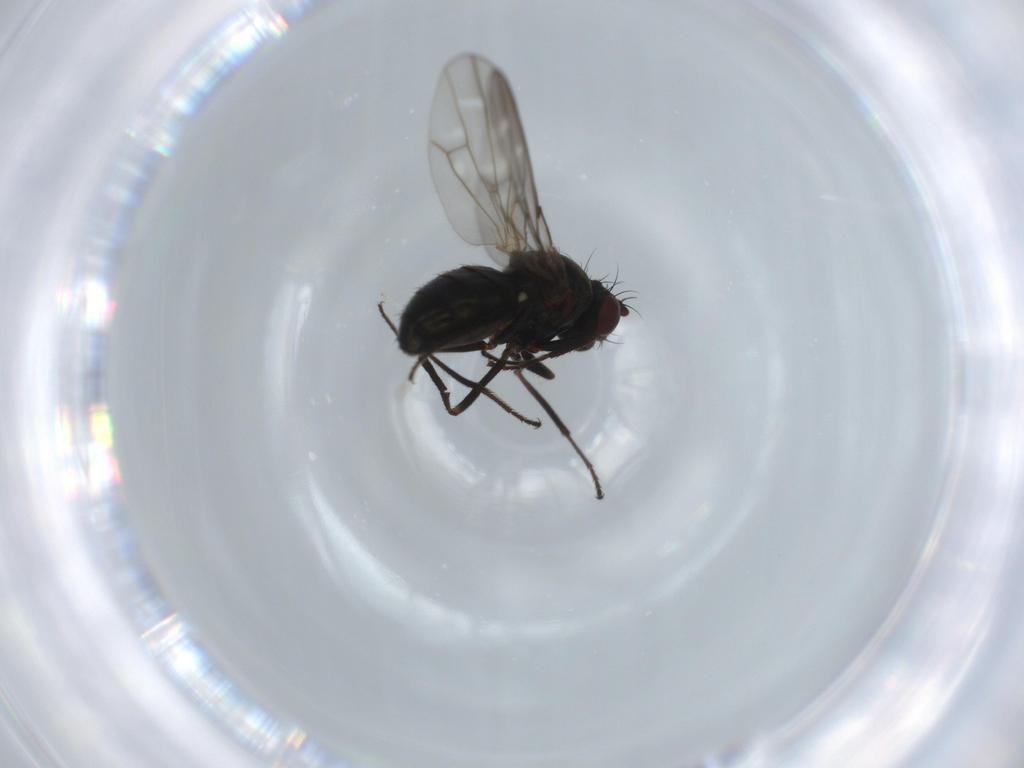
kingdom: Animalia
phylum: Arthropoda
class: Insecta
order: Diptera
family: Ephydridae
